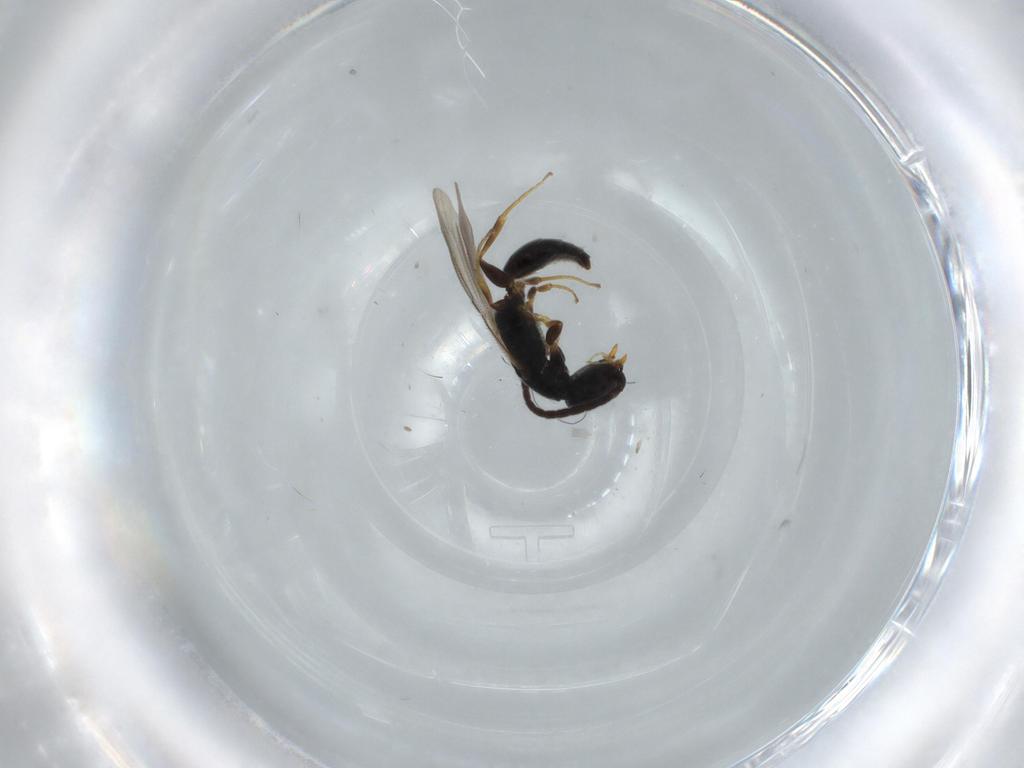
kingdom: Animalia
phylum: Arthropoda
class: Insecta
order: Hymenoptera
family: Bethylidae
